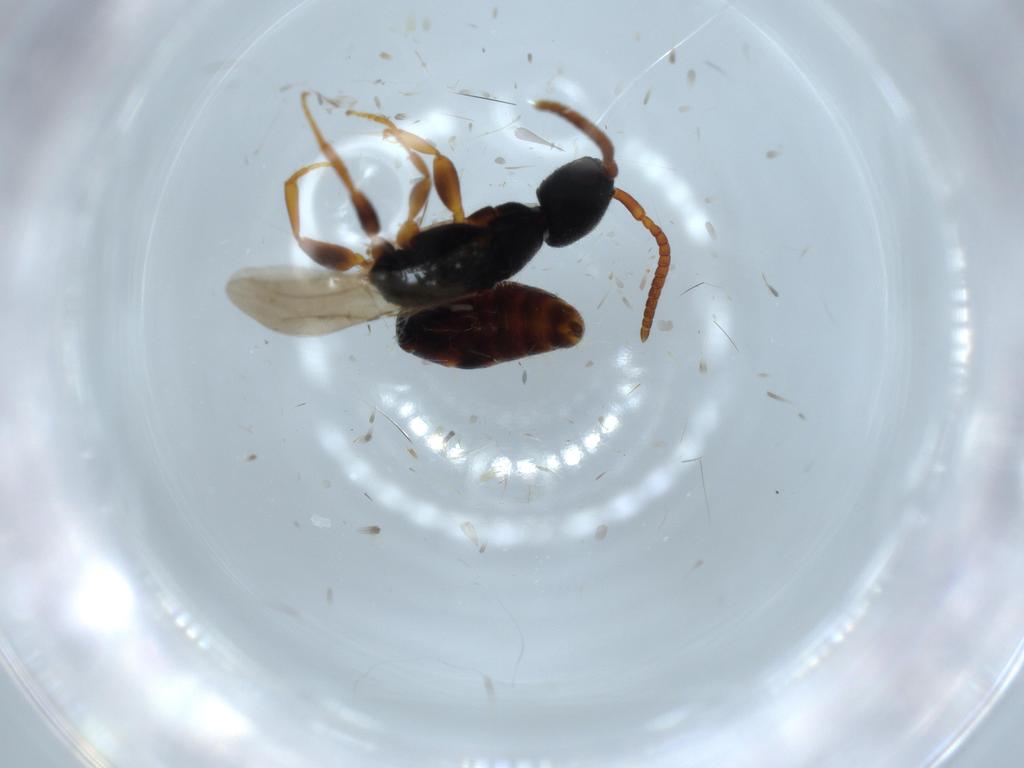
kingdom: Animalia
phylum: Arthropoda
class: Insecta
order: Hymenoptera
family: Bethylidae
